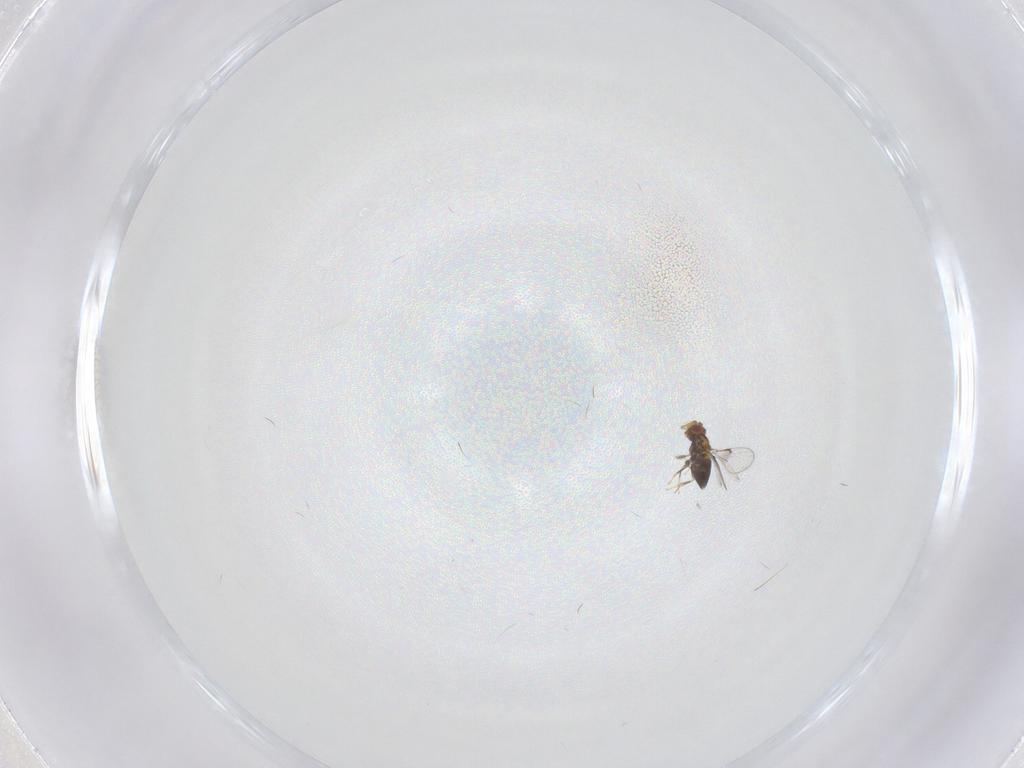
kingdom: Animalia
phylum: Arthropoda
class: Insecta
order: Hymenoptera
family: Trichogrammatidae
